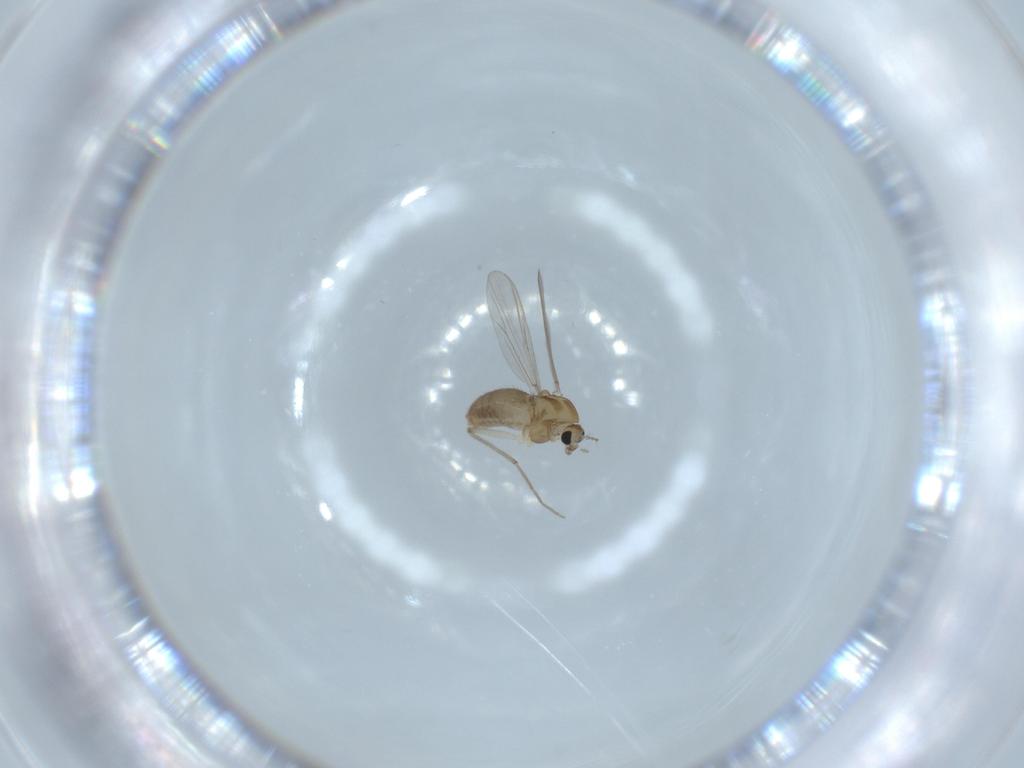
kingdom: Animalia
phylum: Arthropoda
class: Insecta
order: Diptera
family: Chironomidae
